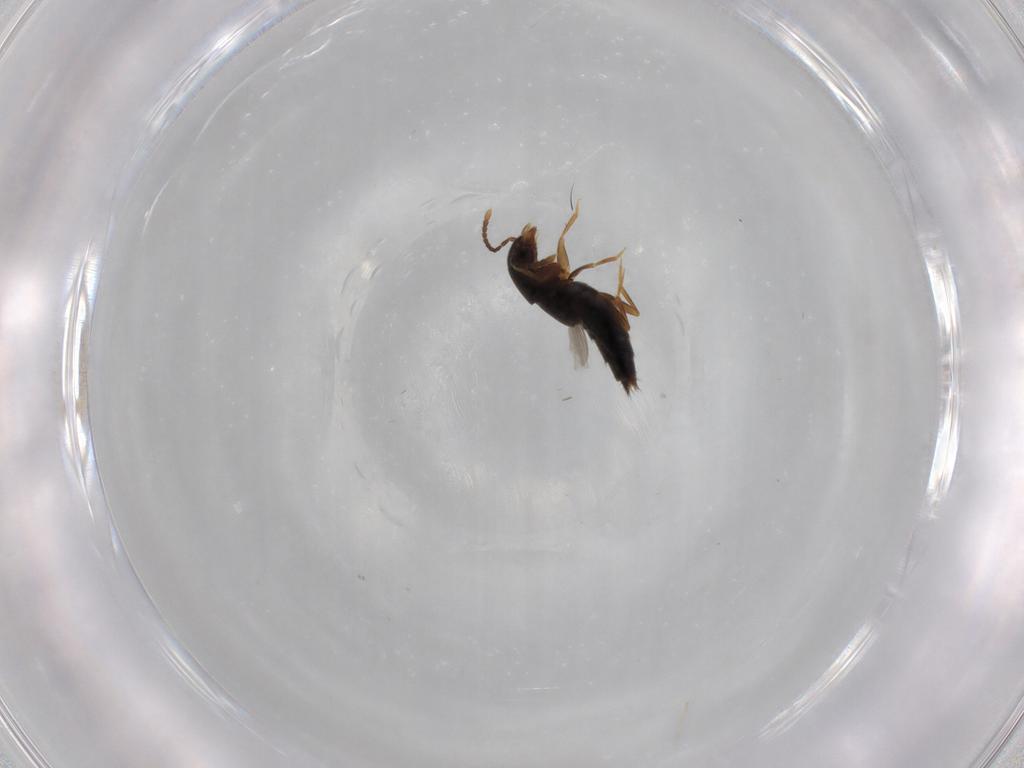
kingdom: Animalia
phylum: Arthropoda
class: Insecta
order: Coleoptera
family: Staphylinidae
